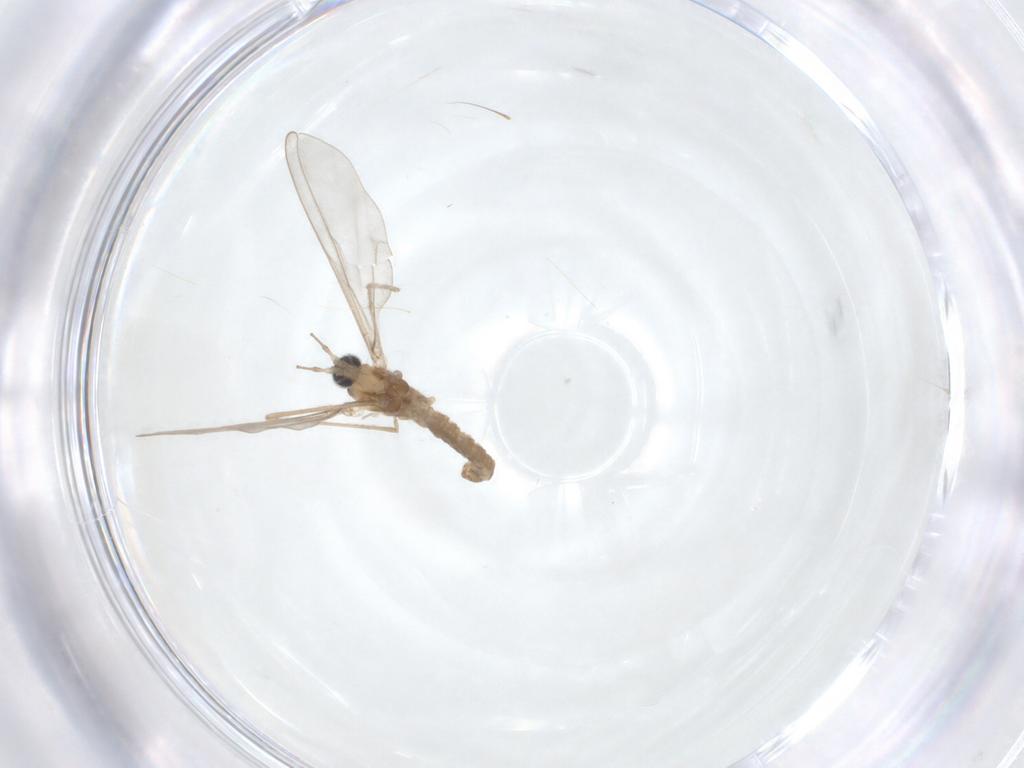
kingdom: Animalia
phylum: Arthropoda
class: Insecta
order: Diptera
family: Cecidomyiidae
